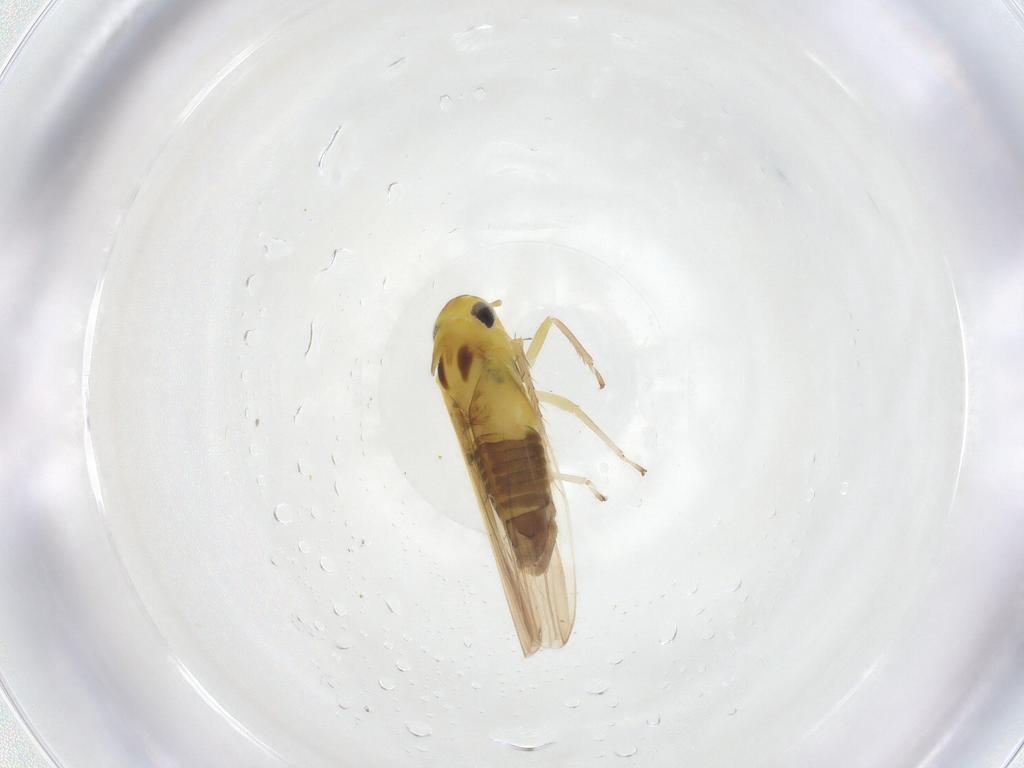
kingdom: Animalia
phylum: Arthropoda
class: Insecta
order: Hemiptera
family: Cicadellidae
